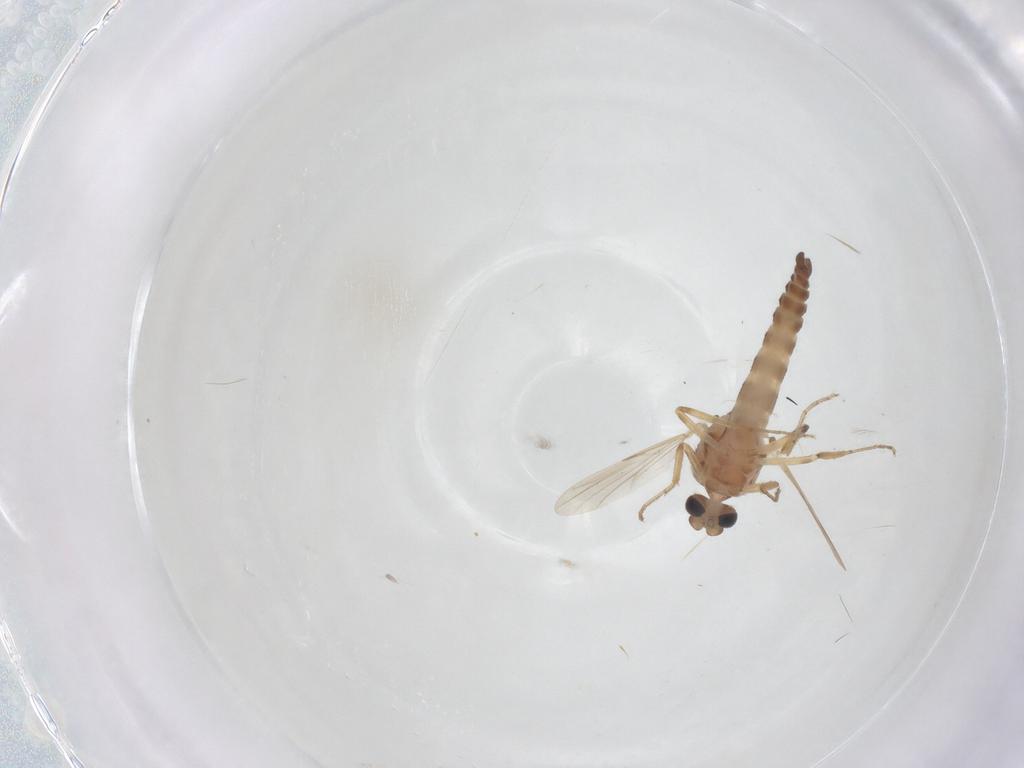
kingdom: Animalia
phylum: Arthropoda
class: Insecta
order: Diptera
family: Ceratopogonidae
